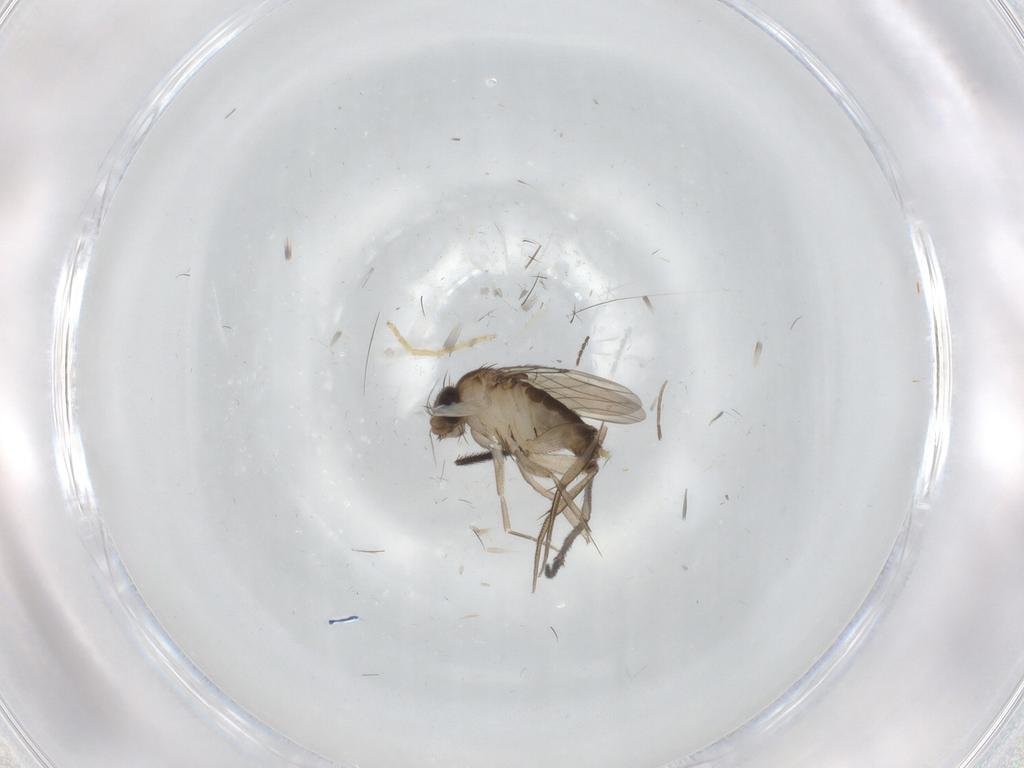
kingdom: Animalia
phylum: Arthropoda
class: Insecta
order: Diptera
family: Phoridae
